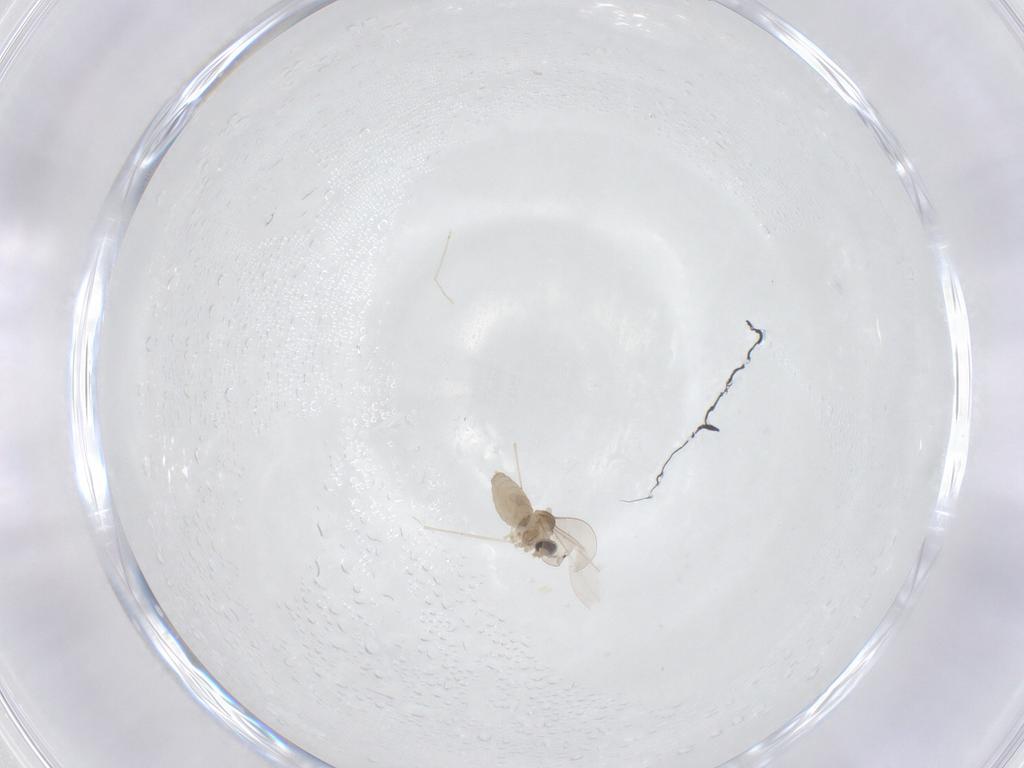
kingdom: Animalia
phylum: Arthropoda
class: Insecta
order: Diptera
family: Cecidomyiidae
